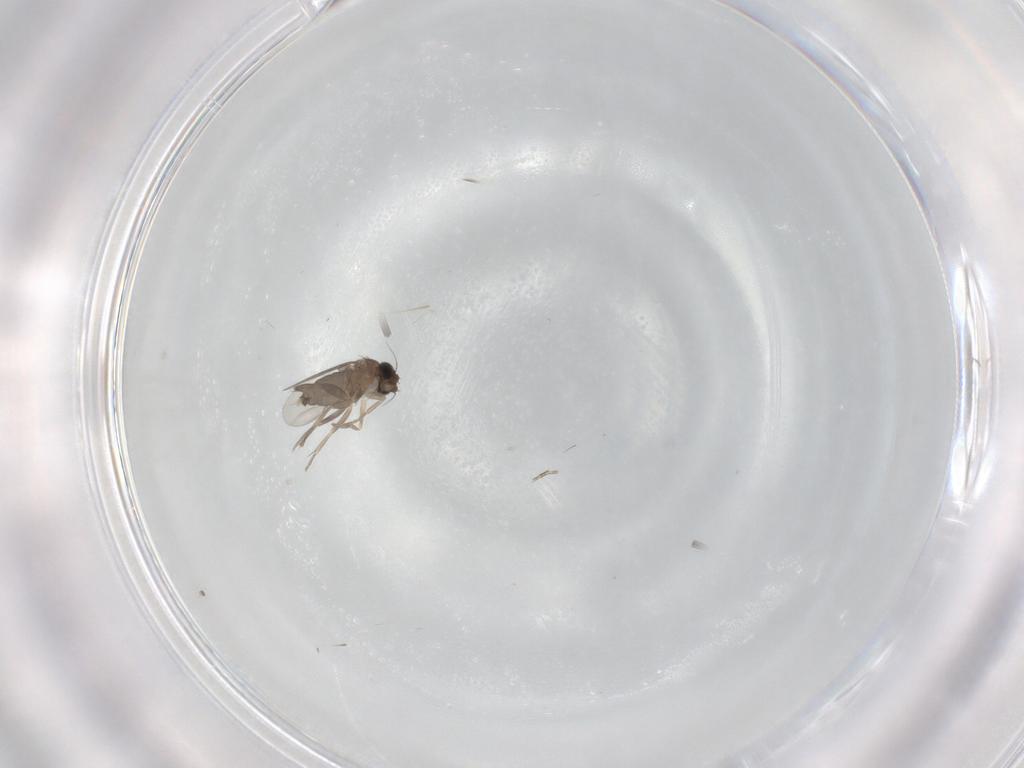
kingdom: Animalia
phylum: Arthropoda
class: Insecta
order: Diptera
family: Phoridae
